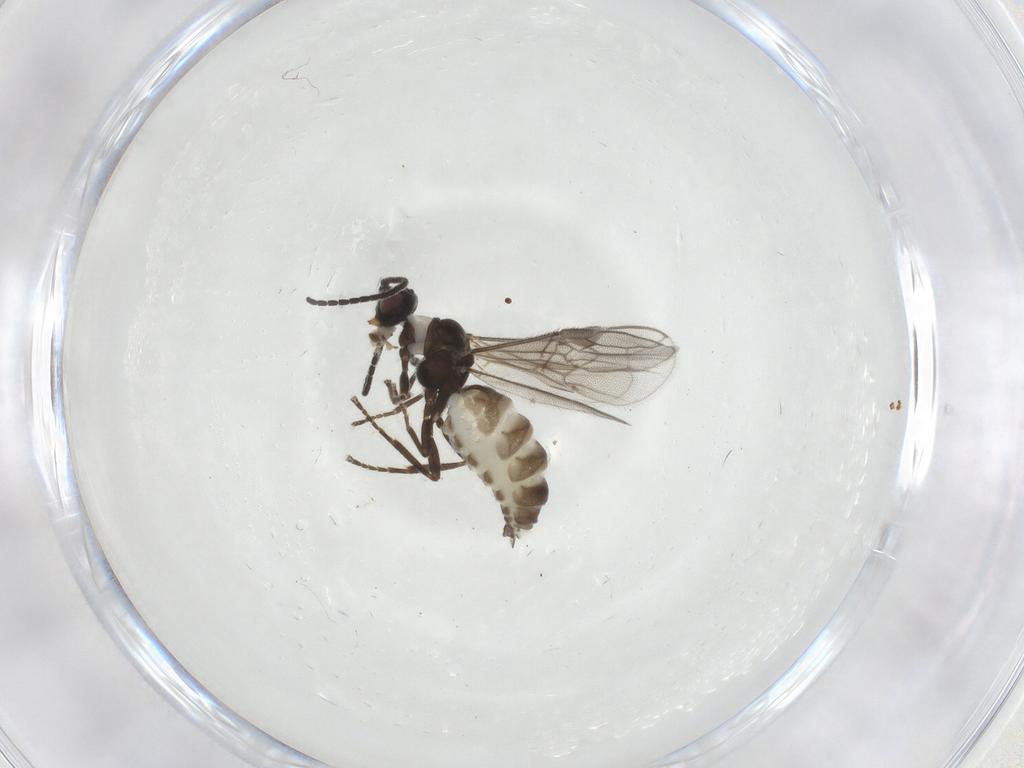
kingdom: Animalia
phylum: Arthropoda
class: Insecta
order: Hymenoptera
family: Braconidae
